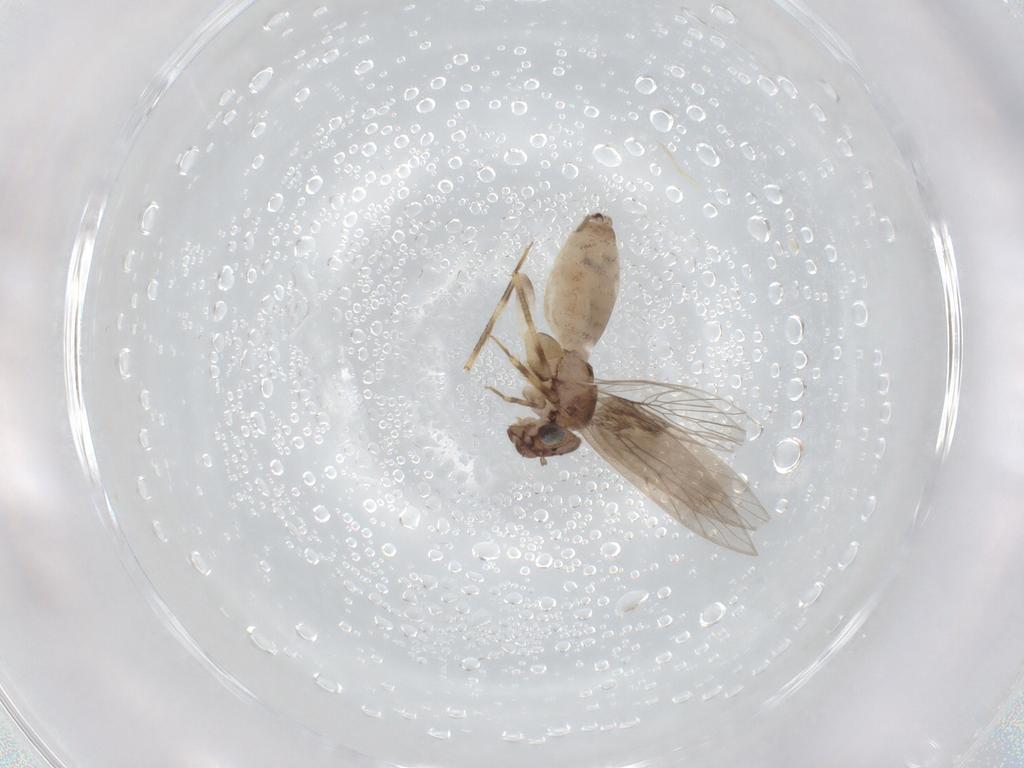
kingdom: Animalia
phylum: Arthropoda
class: Insecta
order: Psocodea
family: Lepidopsocidae
